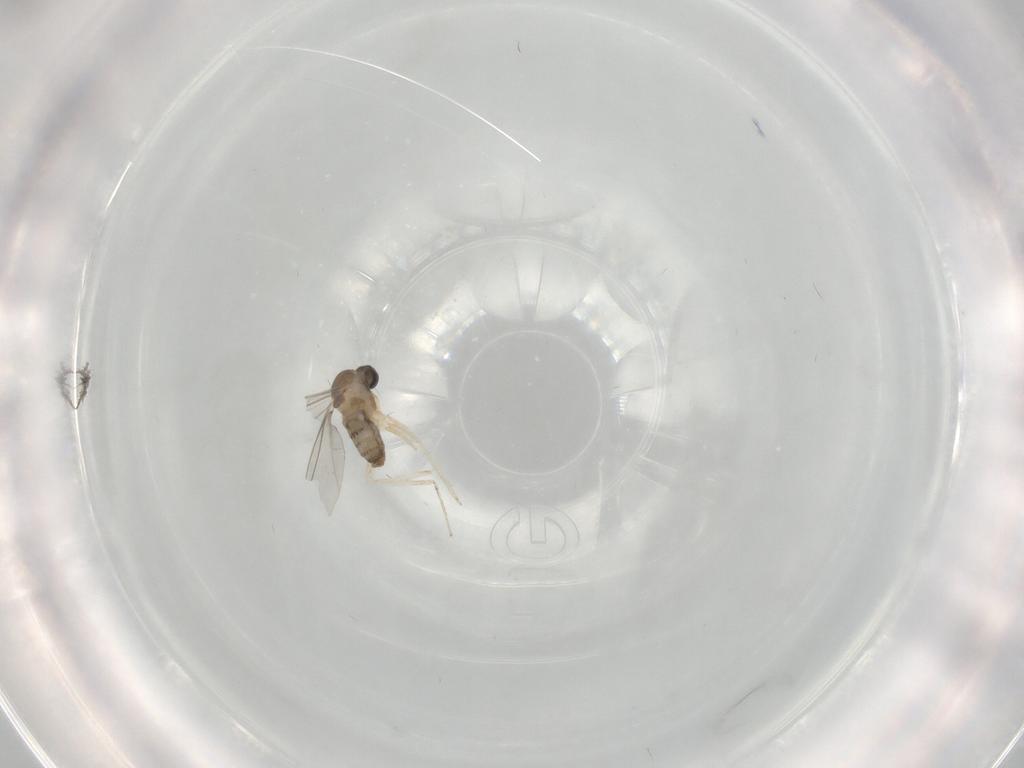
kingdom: Animalia
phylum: Arthropoda
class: Insecta
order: Diptera
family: Cecidomyiidae
